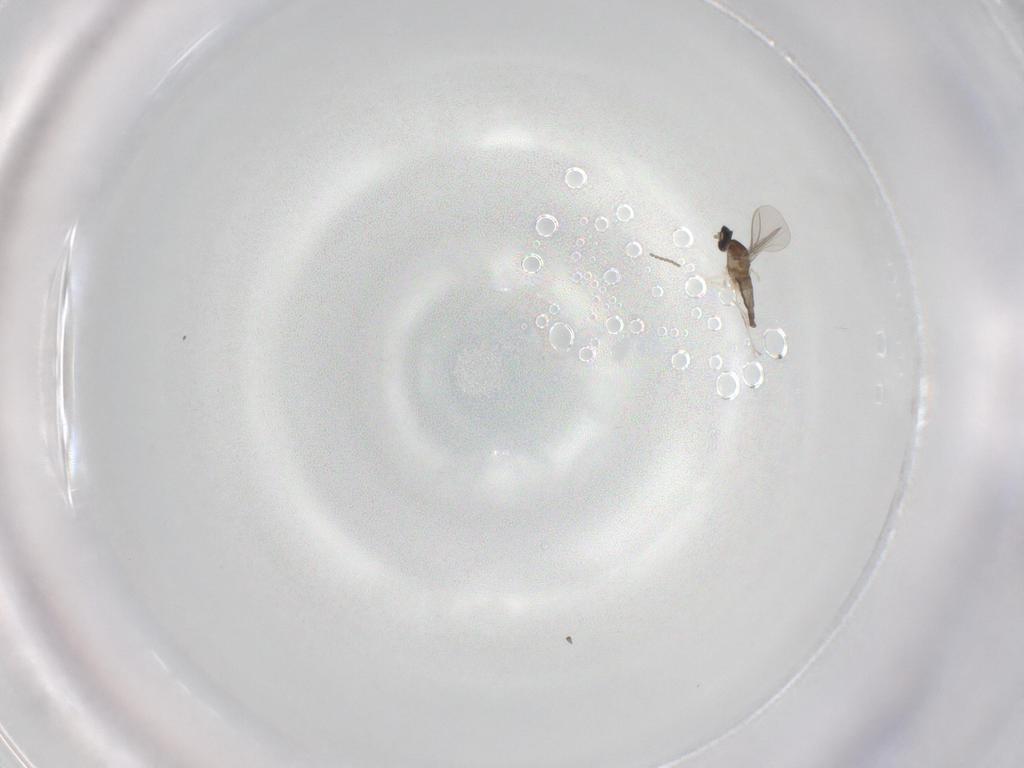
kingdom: Animalia
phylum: Arthropoda
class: Insecta
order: Diptera
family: Cecidomyiidae
